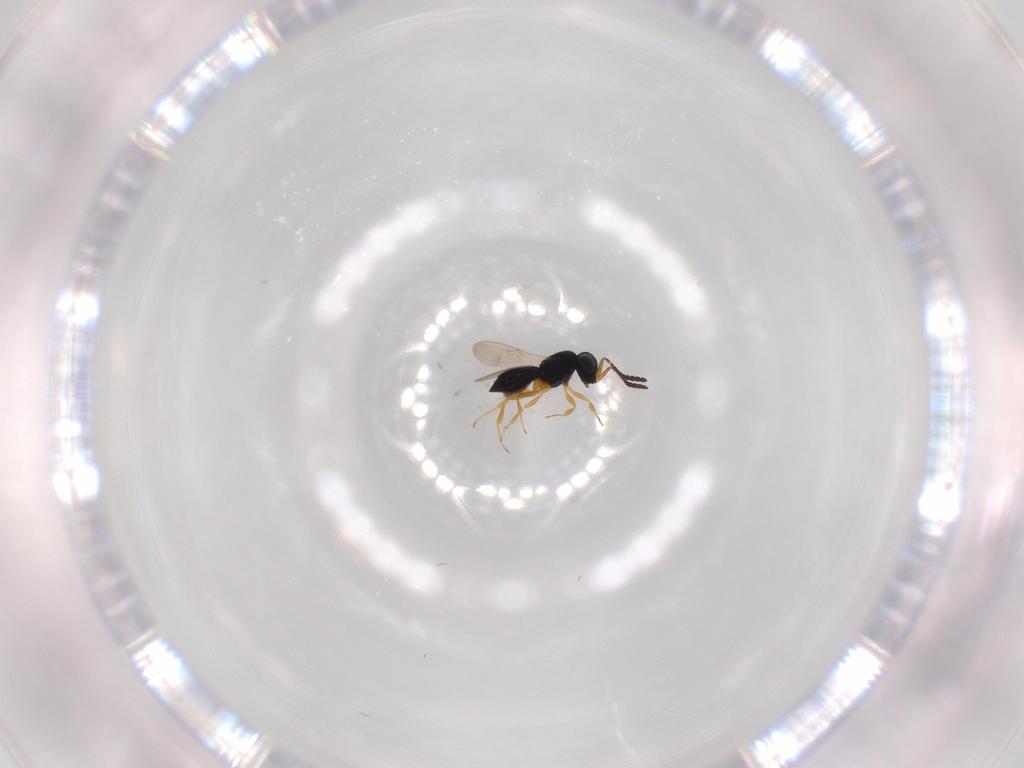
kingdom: Animalia
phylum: Arthropoda
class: Insecta
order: Hymenoptera
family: Scelionidae
